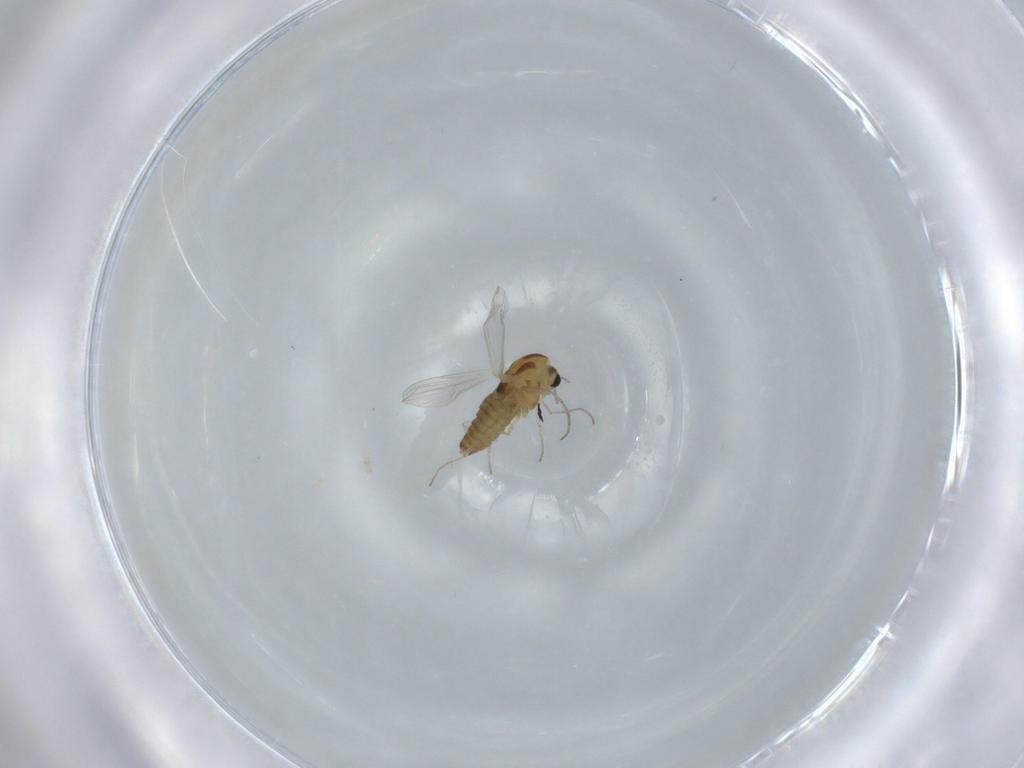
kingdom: Animalia
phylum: Arthropoda
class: Insecta
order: Diptera
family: Chironomidae
